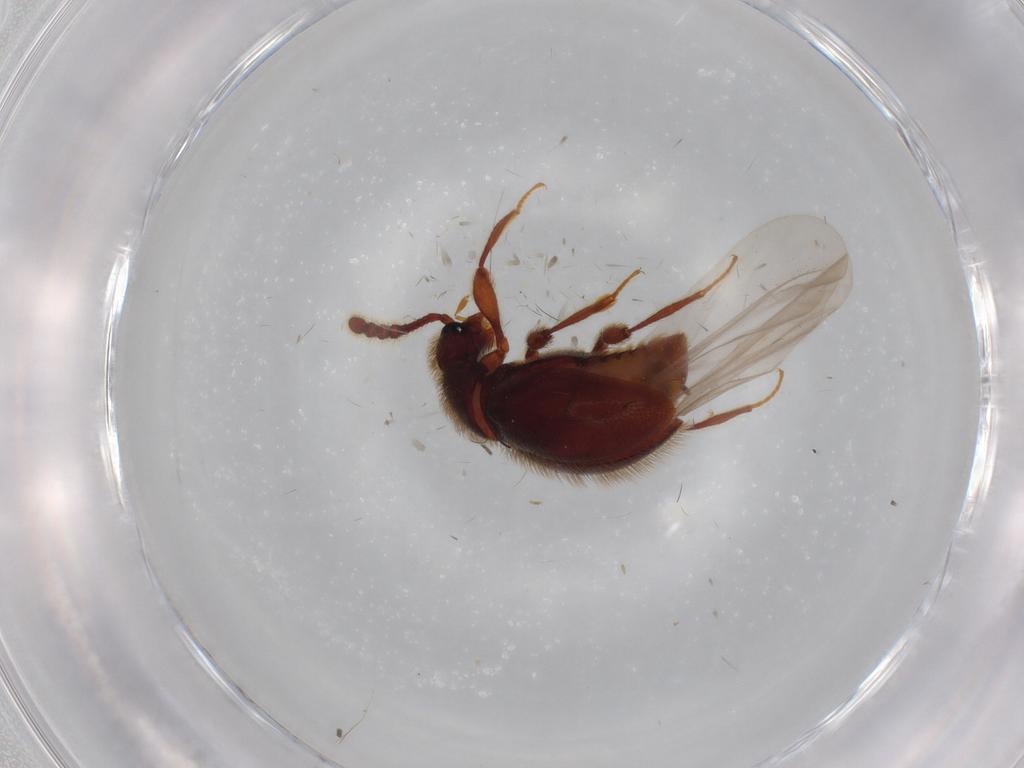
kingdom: Animalia
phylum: Arthropoda
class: Insecta
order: Coleoptera
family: Staphylinidae
